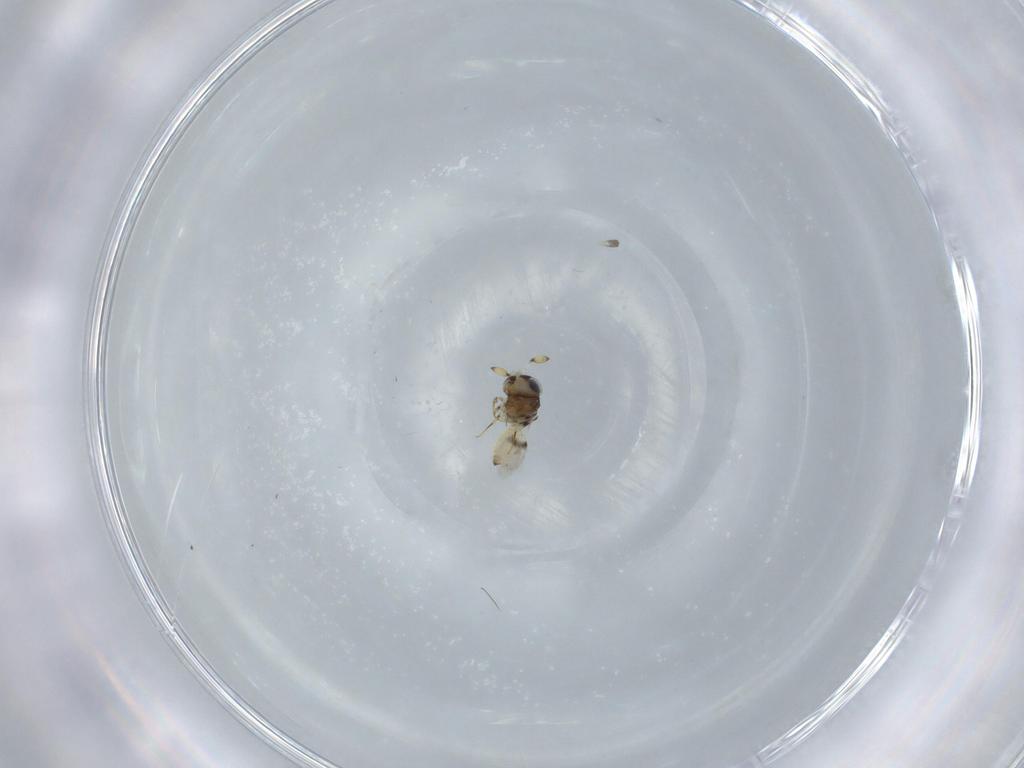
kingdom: Animalia
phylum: Arthropoda
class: Insecta
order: Hymenoptera
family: Scelionidae
